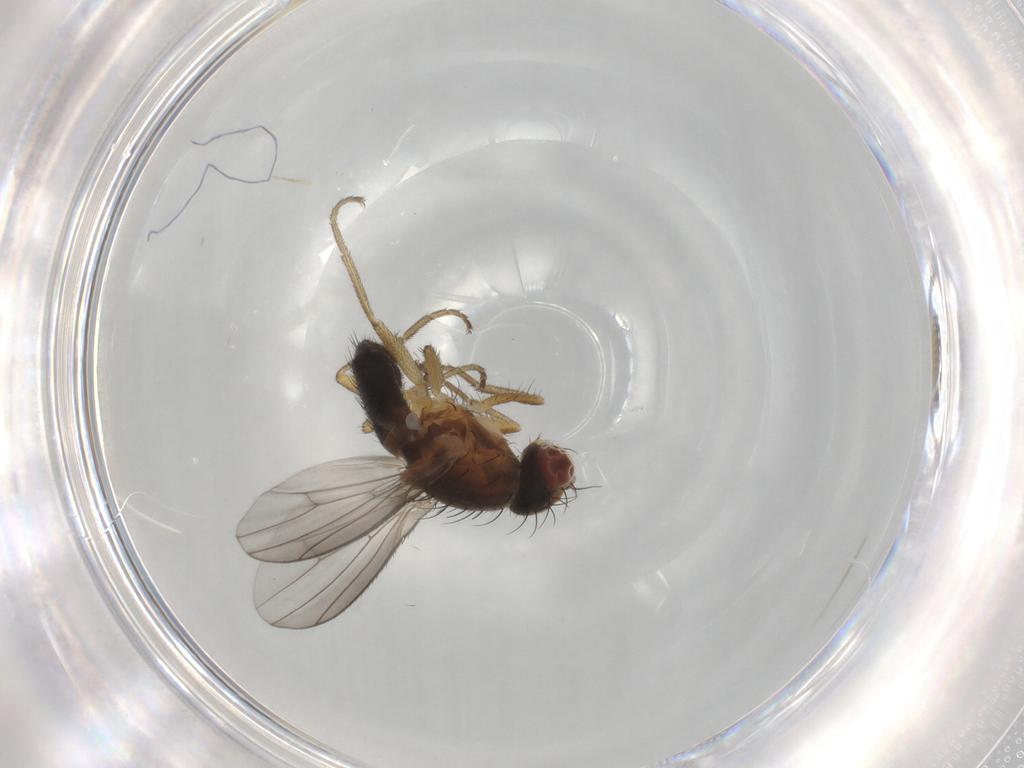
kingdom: Animalia
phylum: Arthropoda
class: Insecta
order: Diptera
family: Heleomyzidae
